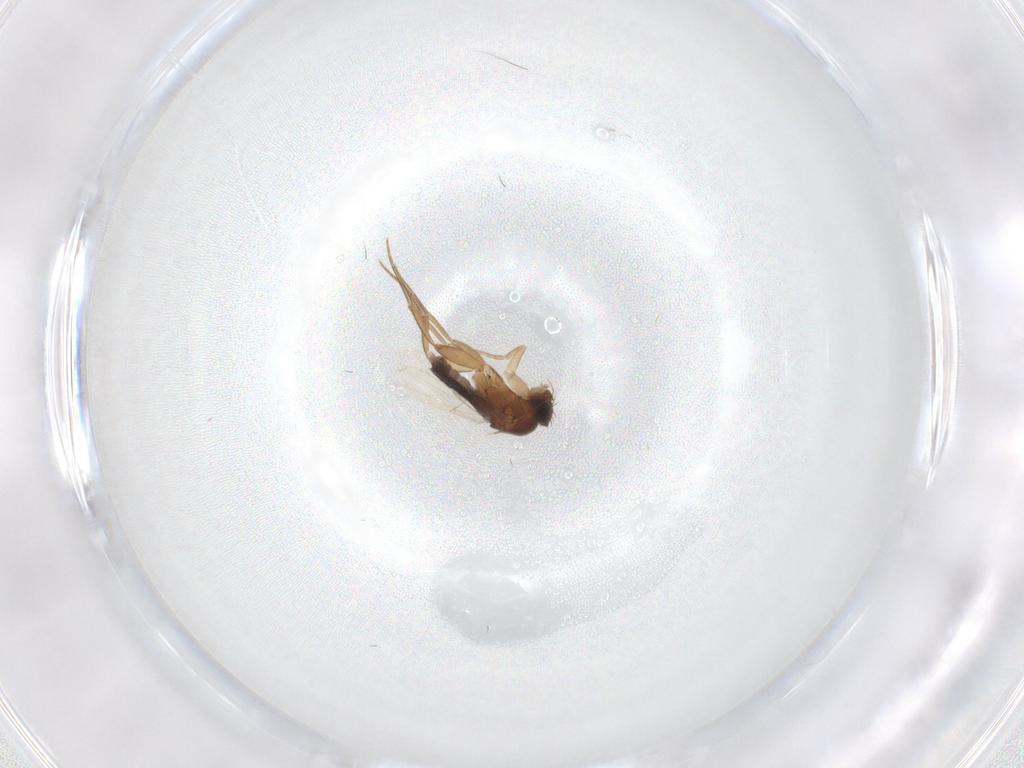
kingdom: Animalia
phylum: Arthropoda
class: Insecta
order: Diptera
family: Phoridae
